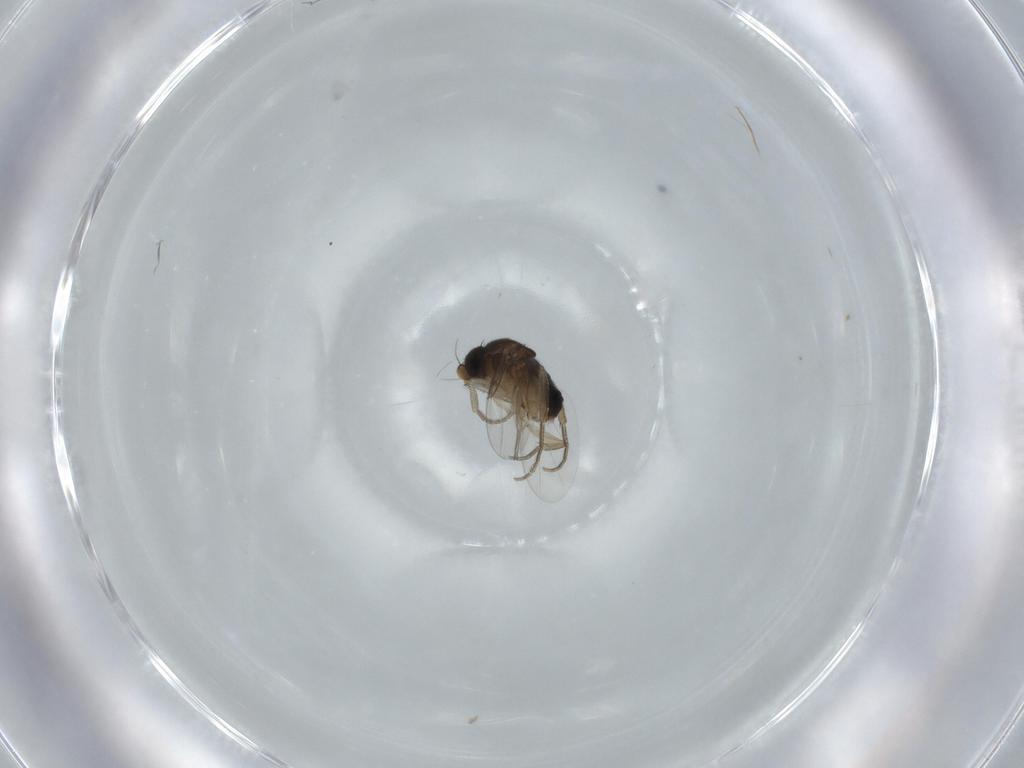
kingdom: Animalia
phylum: Arthropoda
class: Insecta
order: Diptera
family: Phoridae
